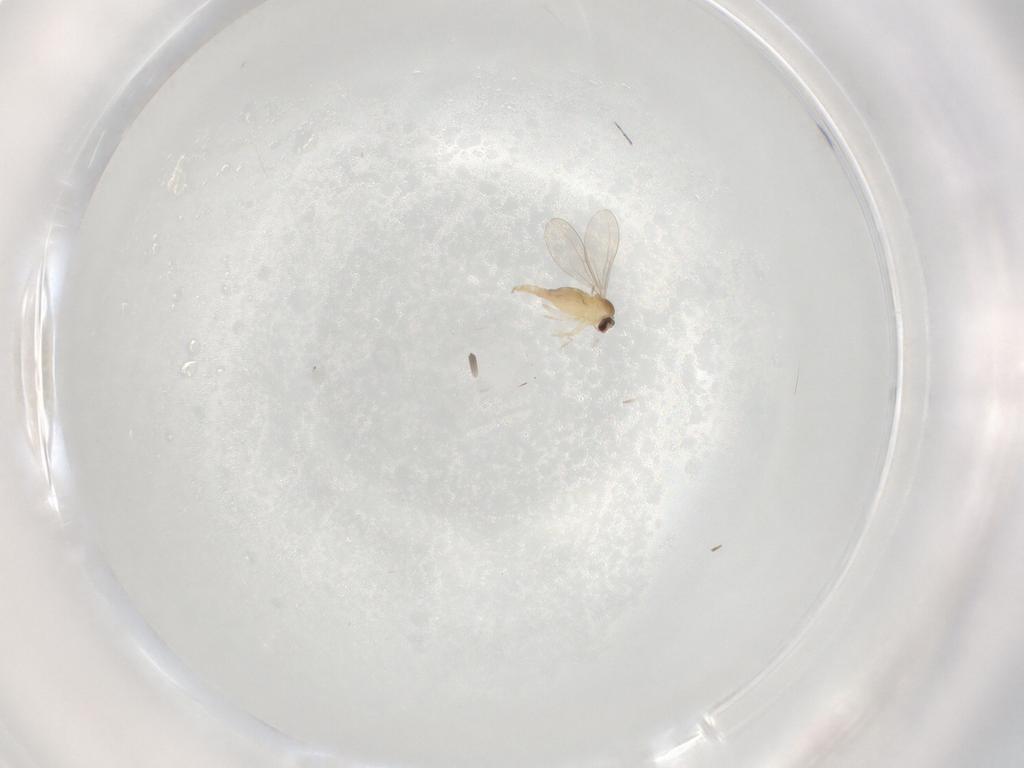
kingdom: Animalia
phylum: Arthropoda
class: Insecta
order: Diptera
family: Cecidomyiidae
